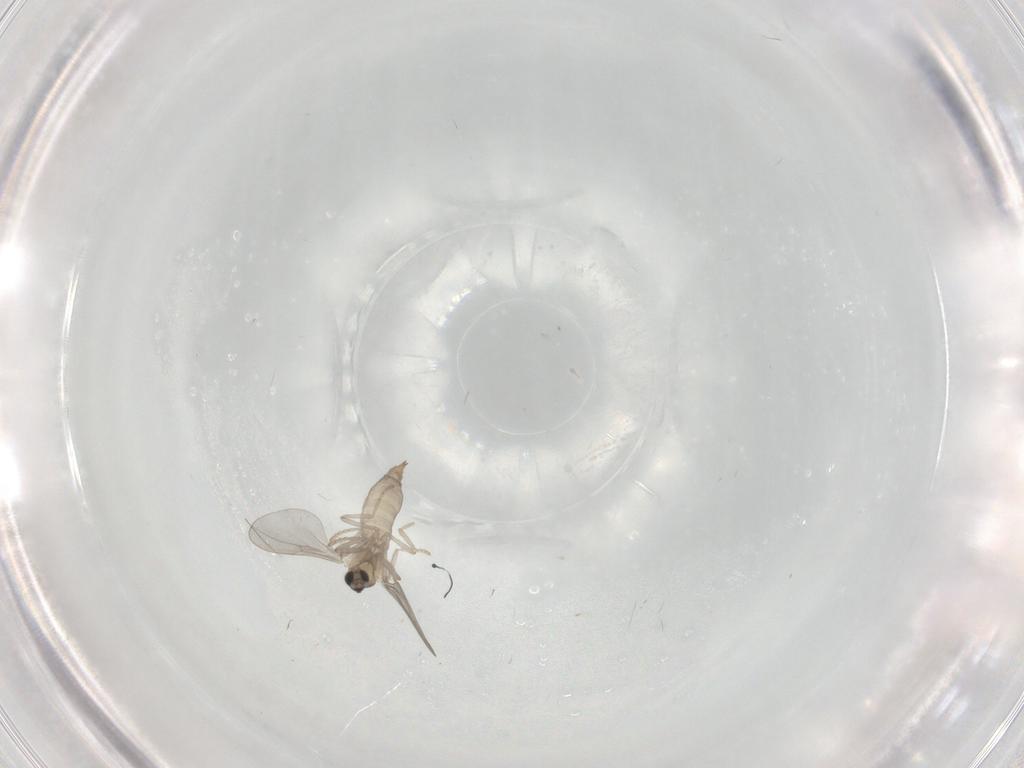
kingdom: Animalia
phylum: Arthropoda
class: Insecta
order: Diptera
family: Cecidomyiidae
